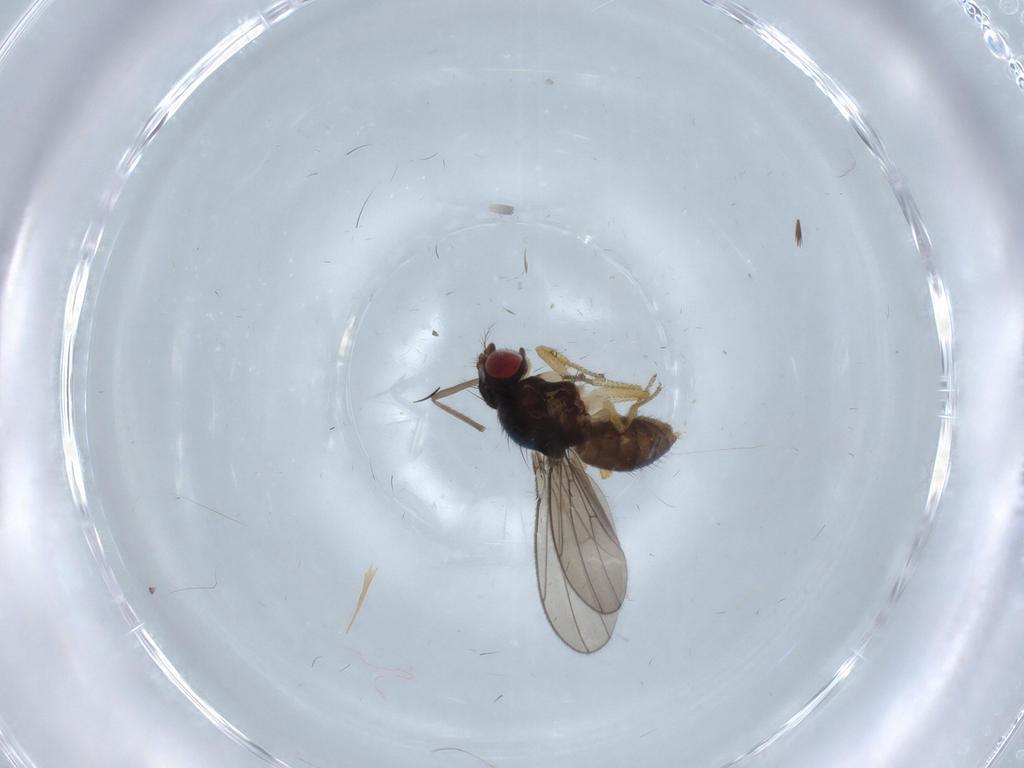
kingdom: Animalia
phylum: Arthropoda
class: Insecta
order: Diptera
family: Drosophilidae
